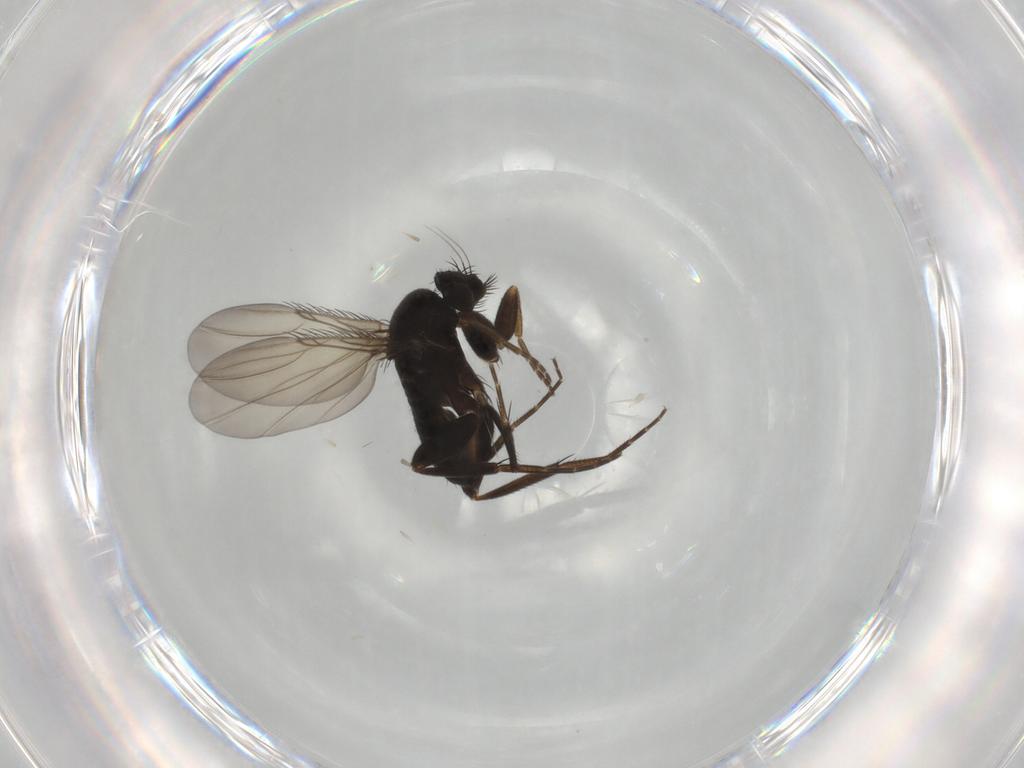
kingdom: Animalia
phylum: Arthropoda
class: Insecta
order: Diptera
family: Phoridae
